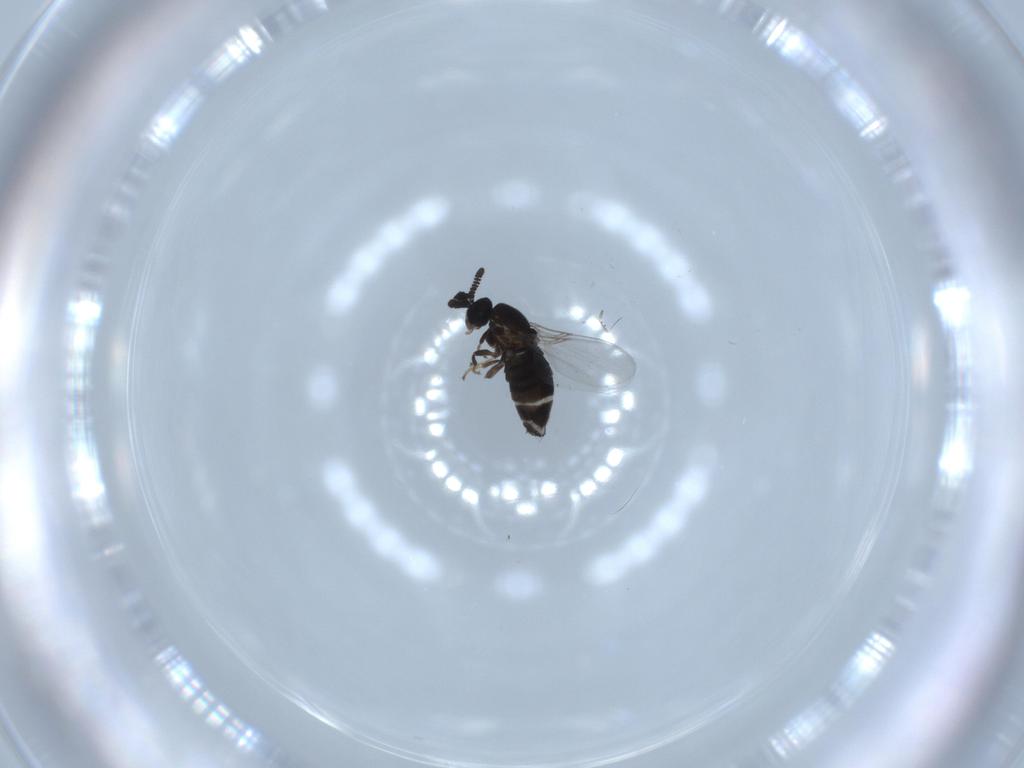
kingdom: Animalia
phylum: Arthropoda
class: Insecta
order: Diptera
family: Scatopsidae
